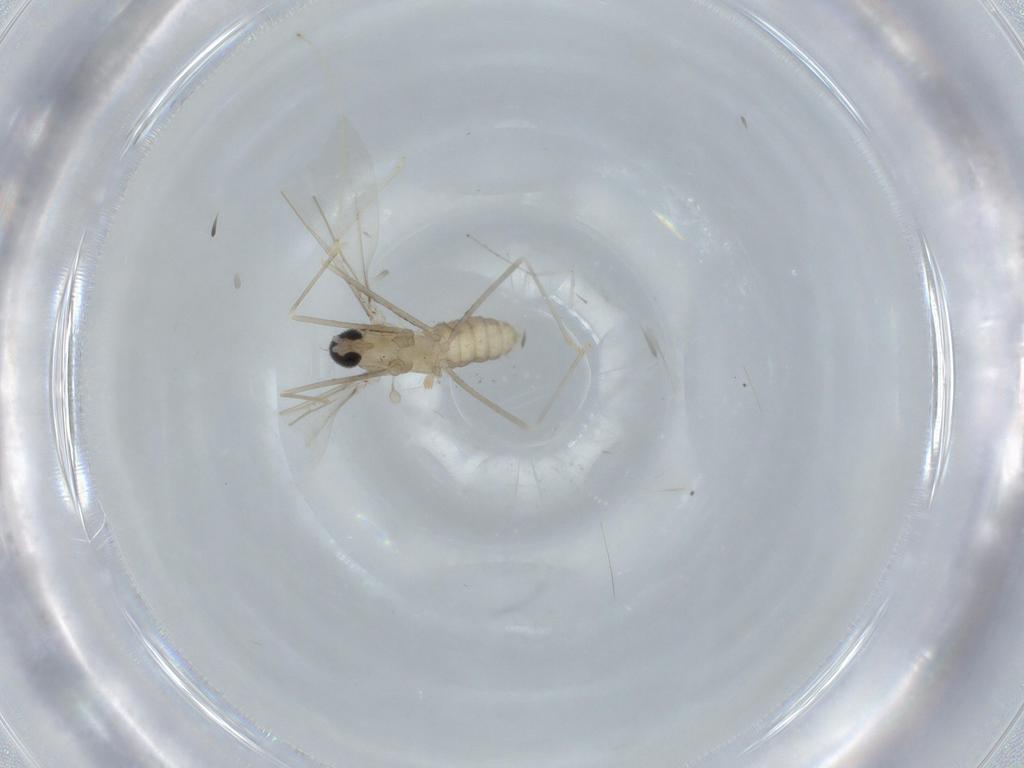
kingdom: Animalia
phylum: Arthropoda
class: Insecta
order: Diptera
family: Cecidomyiidae
